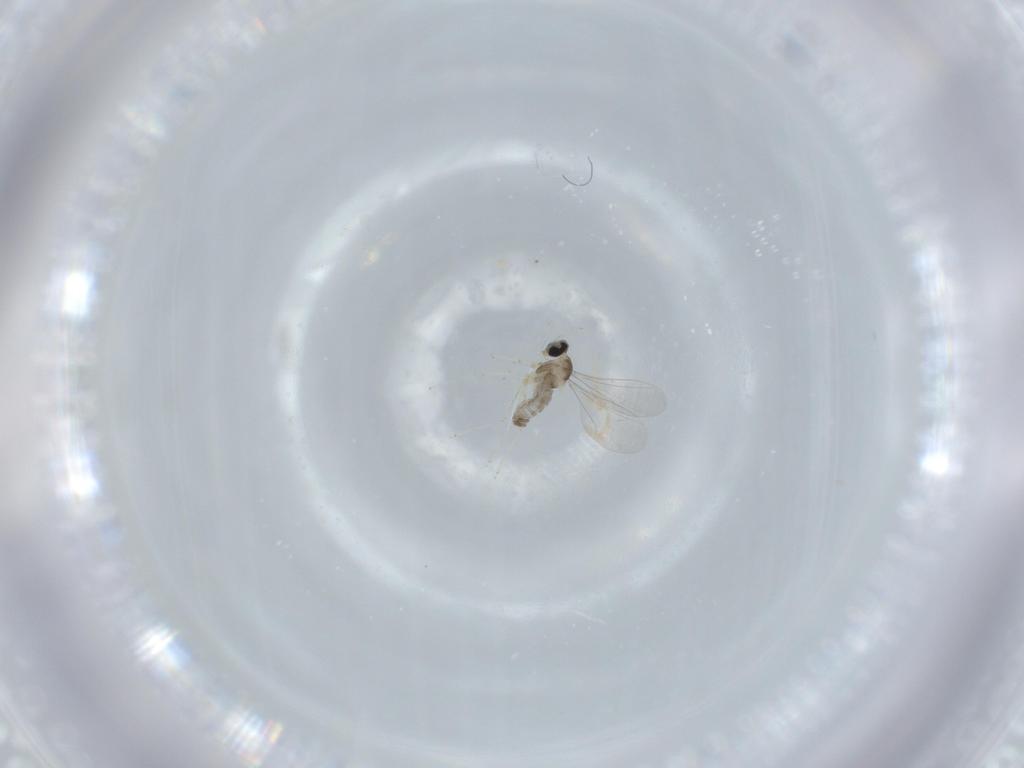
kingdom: Animalia
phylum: Arthropoda
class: Insecta
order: Diptera
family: Cecidomyiidae
